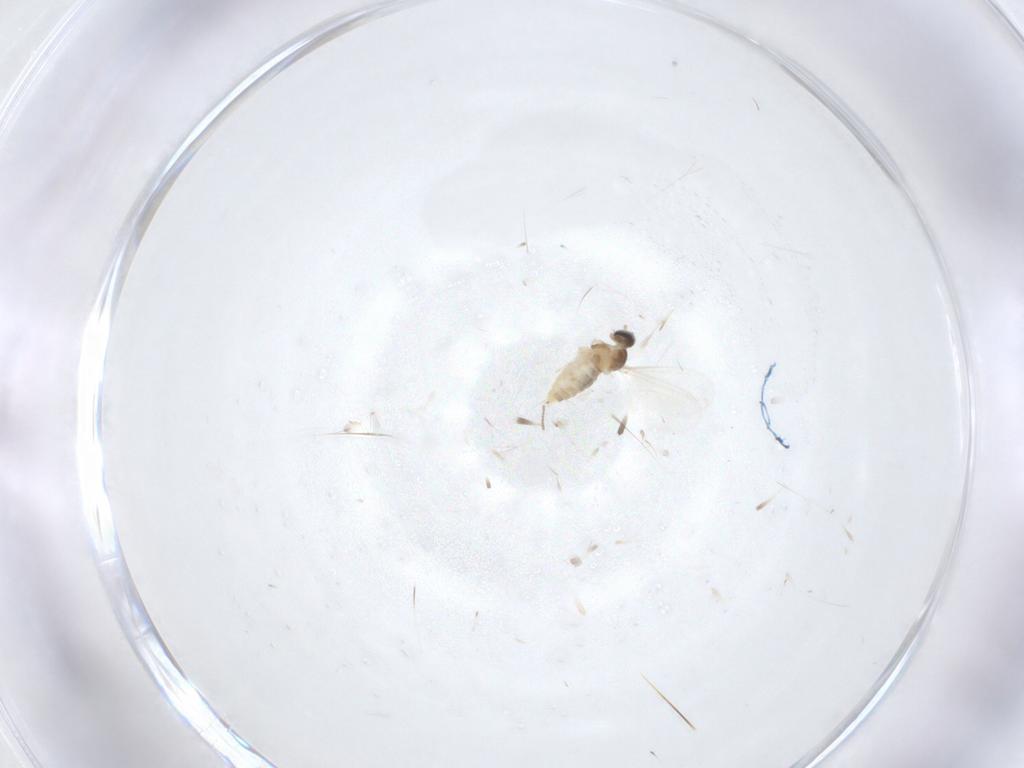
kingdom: Animalia
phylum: Arthropoda
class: Insecta
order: Diptera
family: Cecidomyiidae
